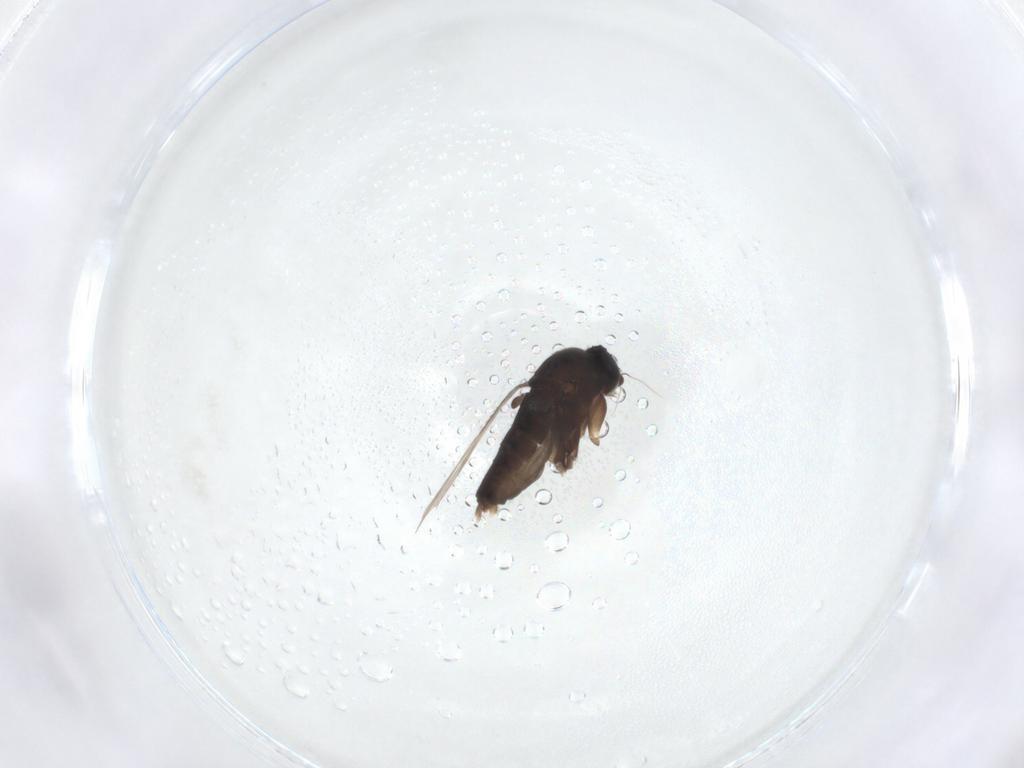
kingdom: Animalia
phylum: Arthropoda
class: Insecta
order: Diptera
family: Phoridae
